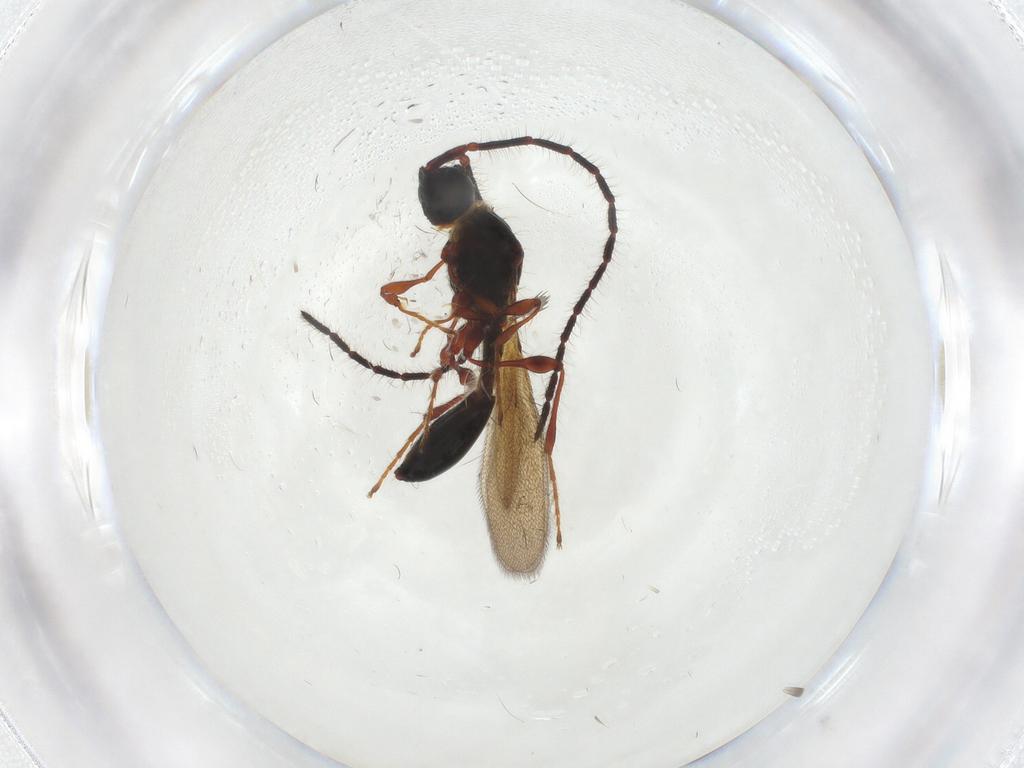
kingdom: Animalia
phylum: Arthropoda
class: Insecta
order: Hymenoptera
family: Diapriidae
